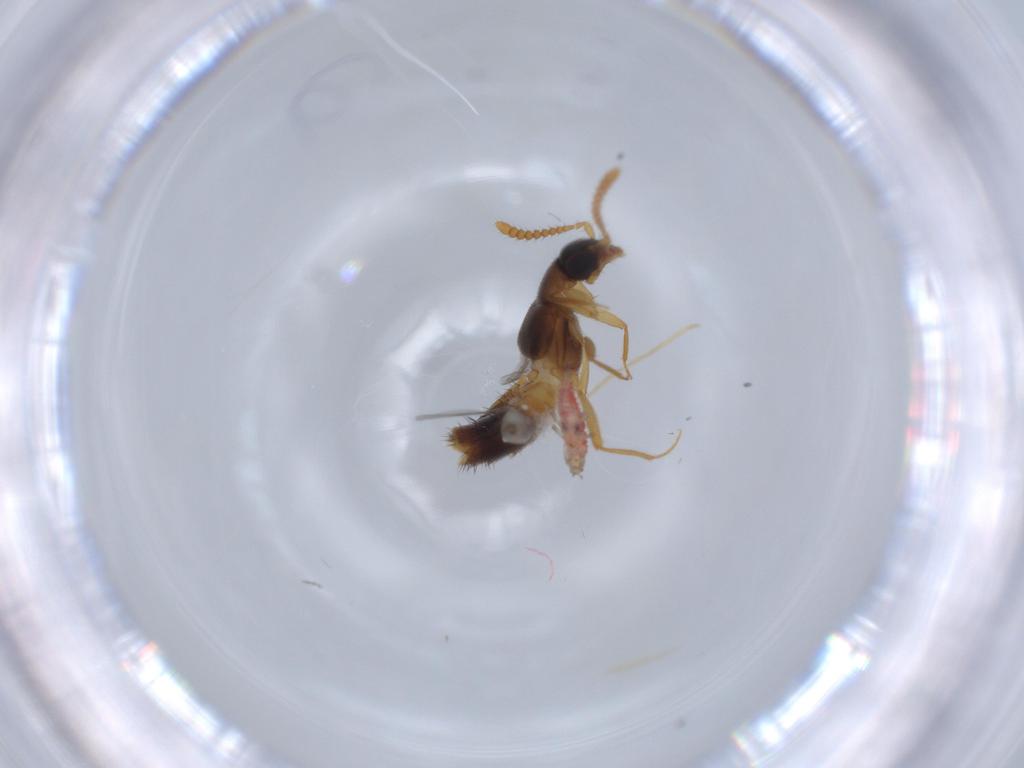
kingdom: Animalia
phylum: Arthropoda
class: Insecta
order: Coleoptera
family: Staphylinidae
